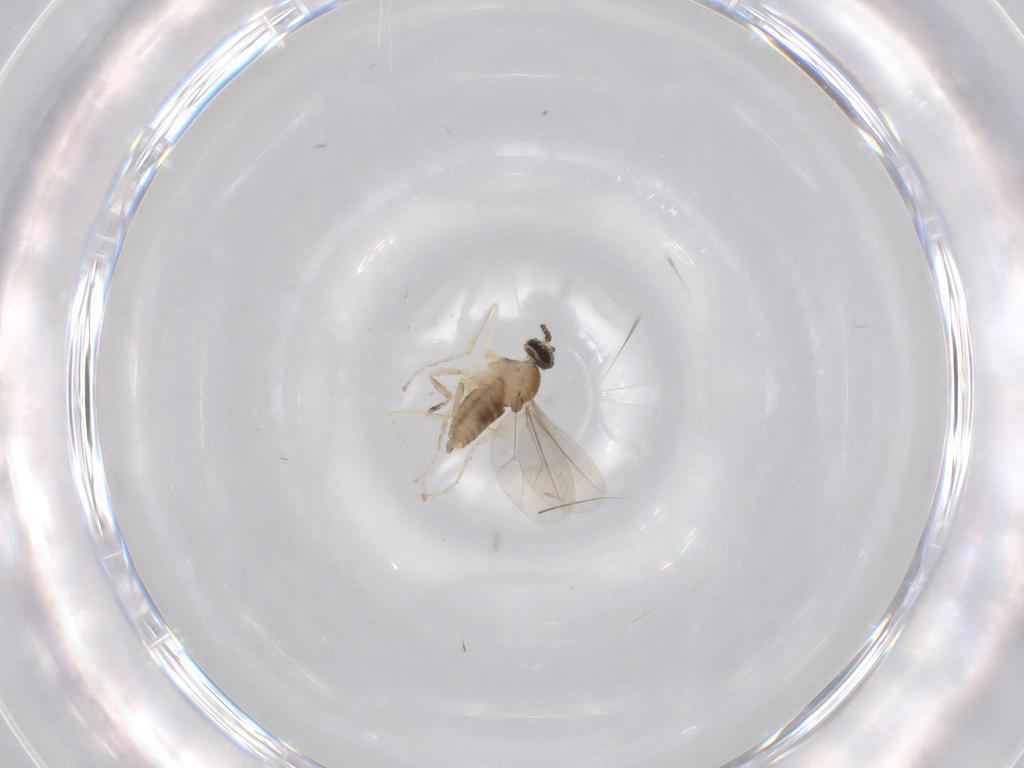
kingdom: Animalia
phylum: Arthropoda
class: Insecta
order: Diptera
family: Cecidomyiidae
